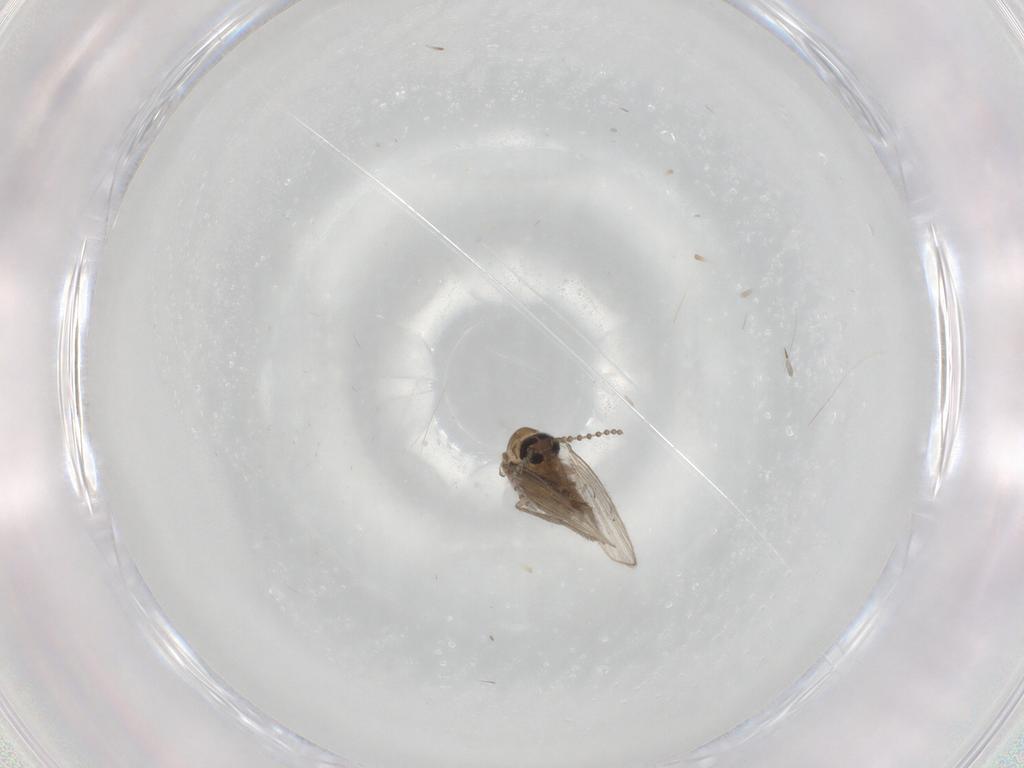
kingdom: Animalia
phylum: Arthropoda
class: Insecta
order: Diptera
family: Psychodidae
